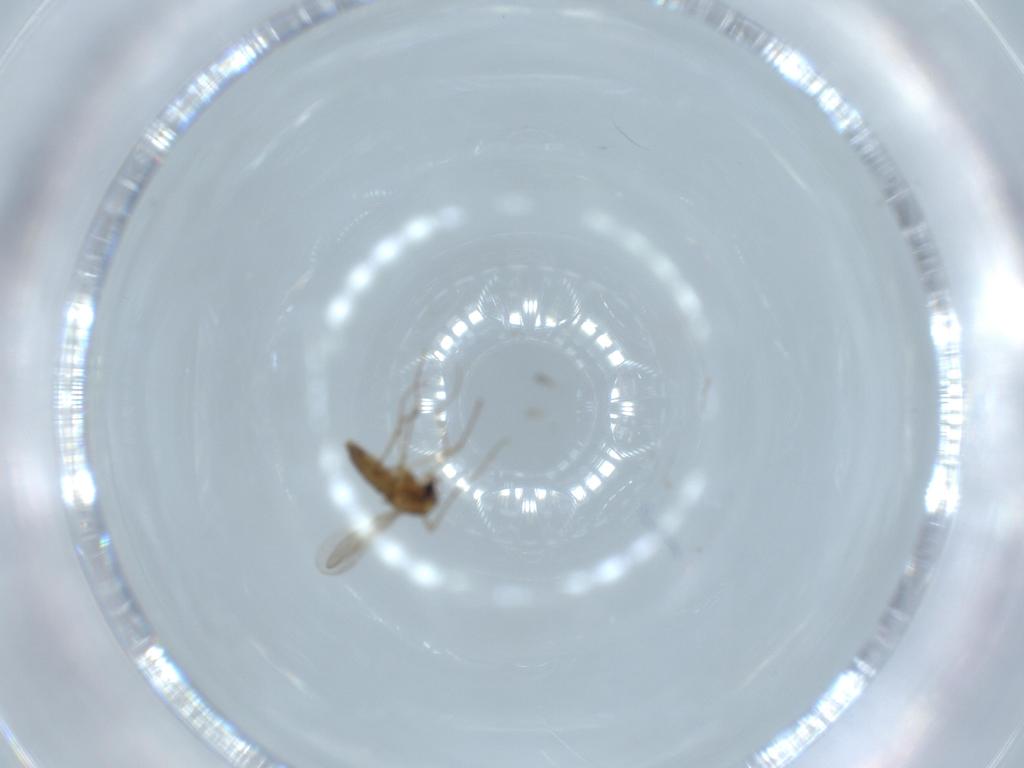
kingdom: Animalia
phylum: Arthropoda
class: Insecta
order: Diptera
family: Chironomidae
